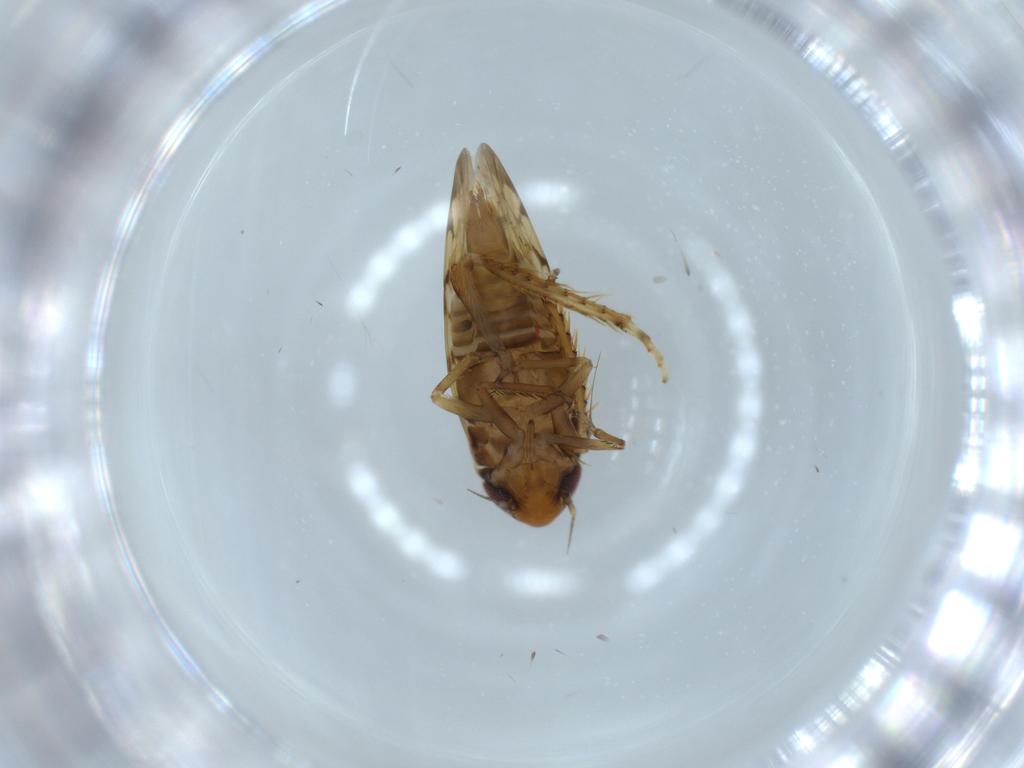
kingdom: Animalia
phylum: Arthropoda
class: Insecta
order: Hemiptera
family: Cicadellidae
